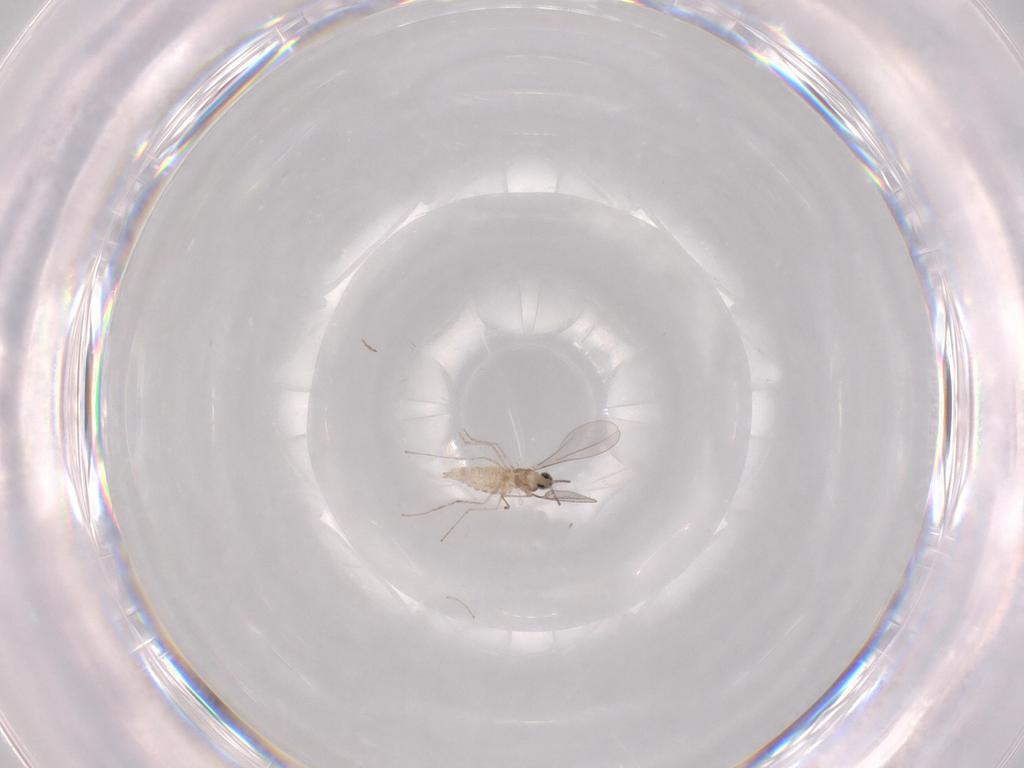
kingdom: Animalia
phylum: Arthropoda
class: Insecta
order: Diptera
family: Cecidomyiidae
